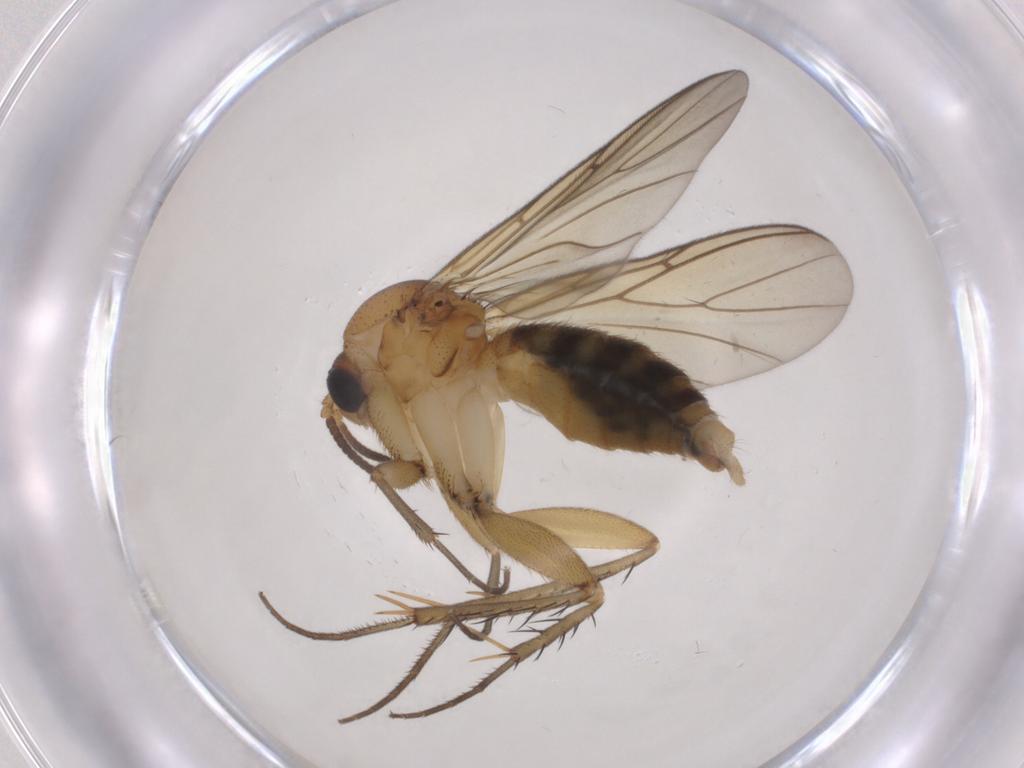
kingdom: Animalia
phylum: Arthropoda
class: Insecta
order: Diptera
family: Mycetophilidae
